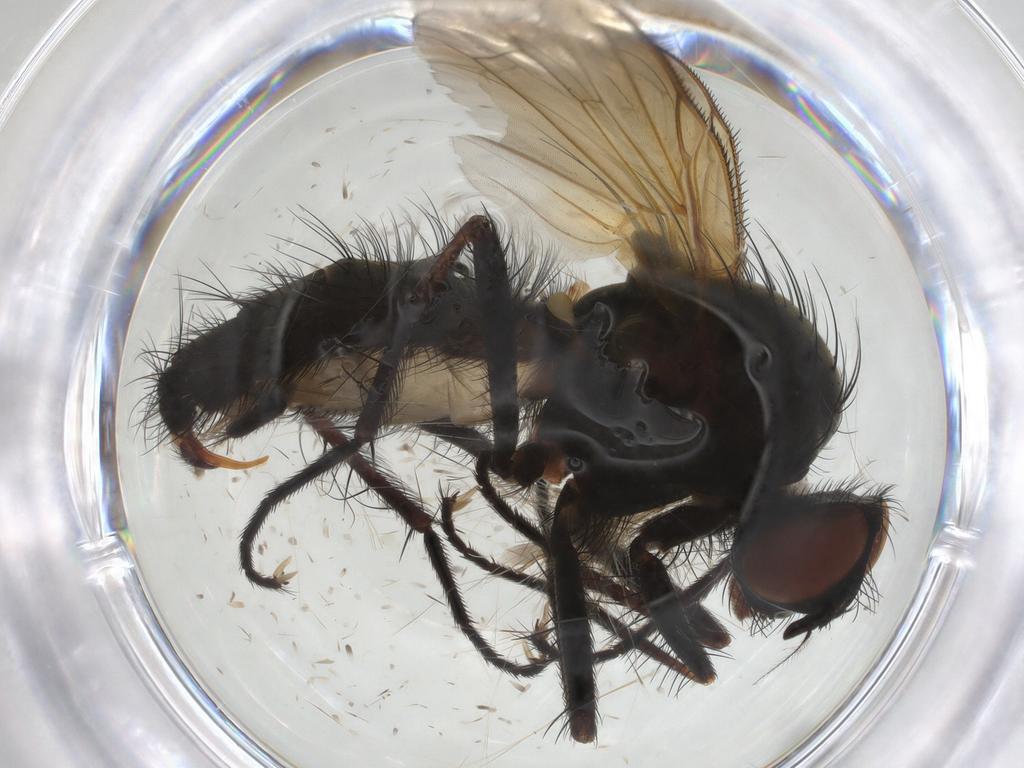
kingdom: Animalia
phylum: Arthropoda
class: Insecta
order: Diptera
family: Anthomyiidae
